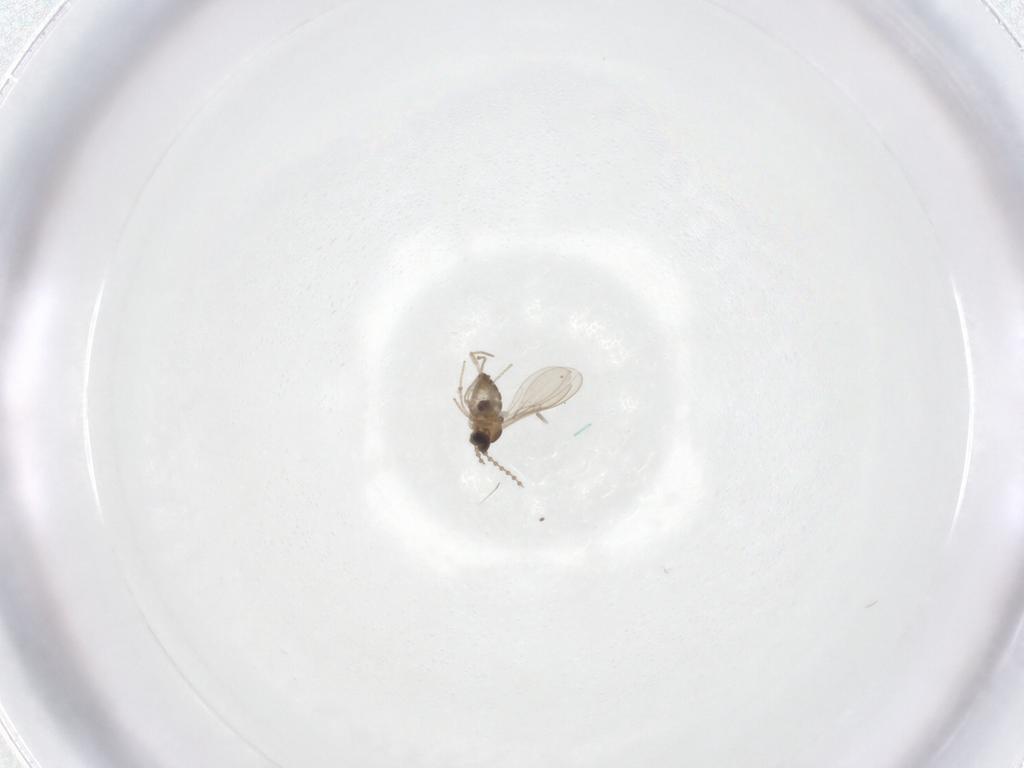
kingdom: Animalia
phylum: Arthropoda
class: Insecta
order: Diptera
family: Cecidomyiidae
